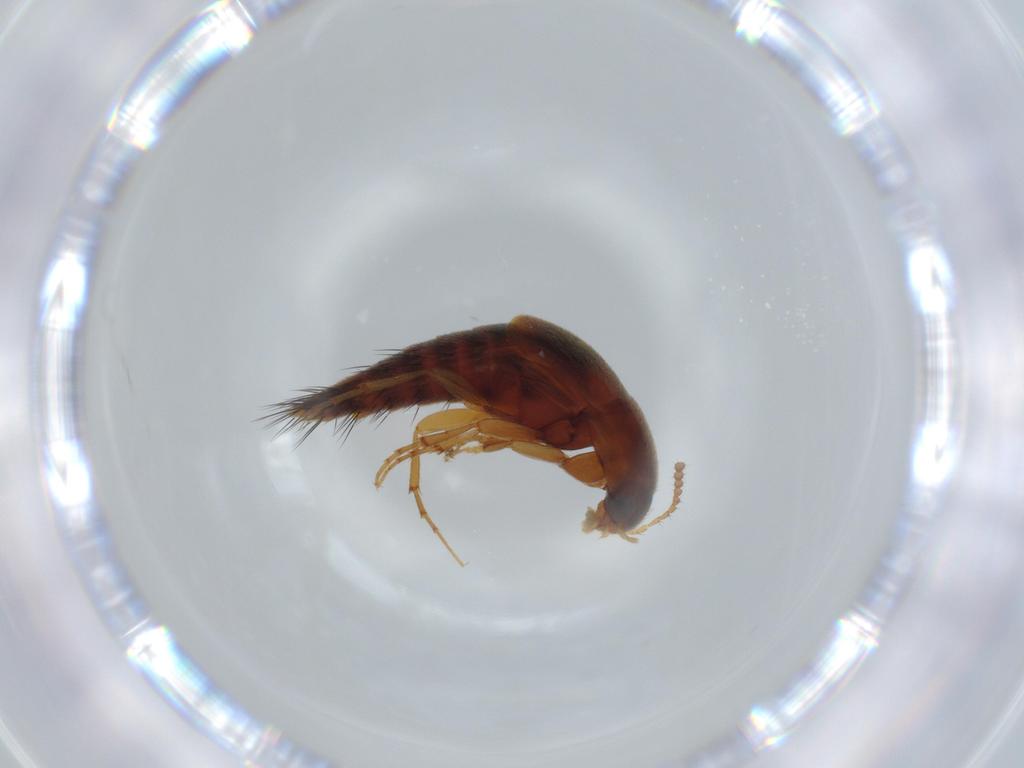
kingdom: Animalia
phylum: Arthropoda
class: Insecta
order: Coleoptera
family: Staphylinidae
